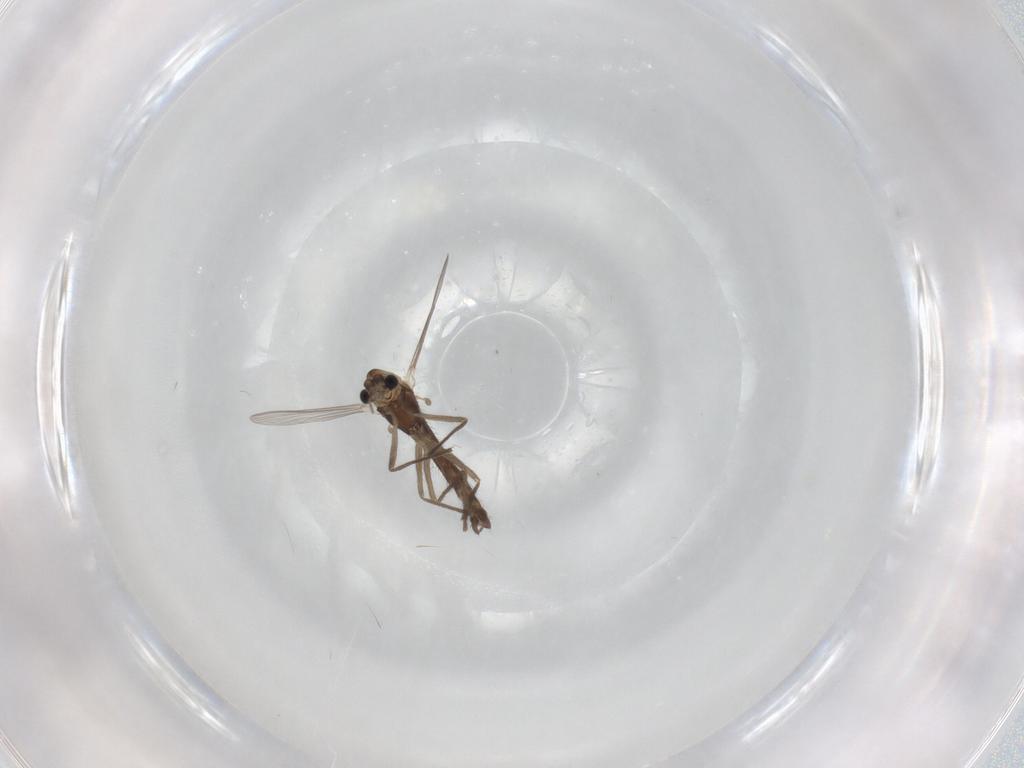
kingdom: Animalia
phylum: Arthropoda
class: Insecta
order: Diptera
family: Chironomidae
